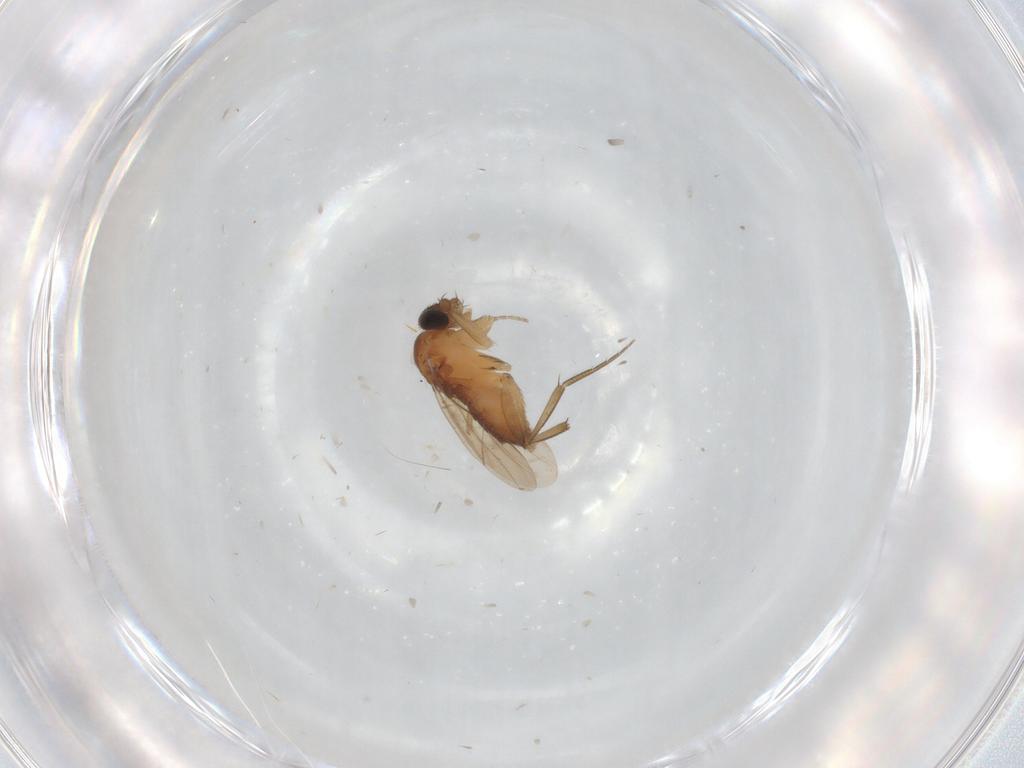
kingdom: Animalia
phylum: Arthropoda
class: Insecta
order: Diptera
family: Phoridae
